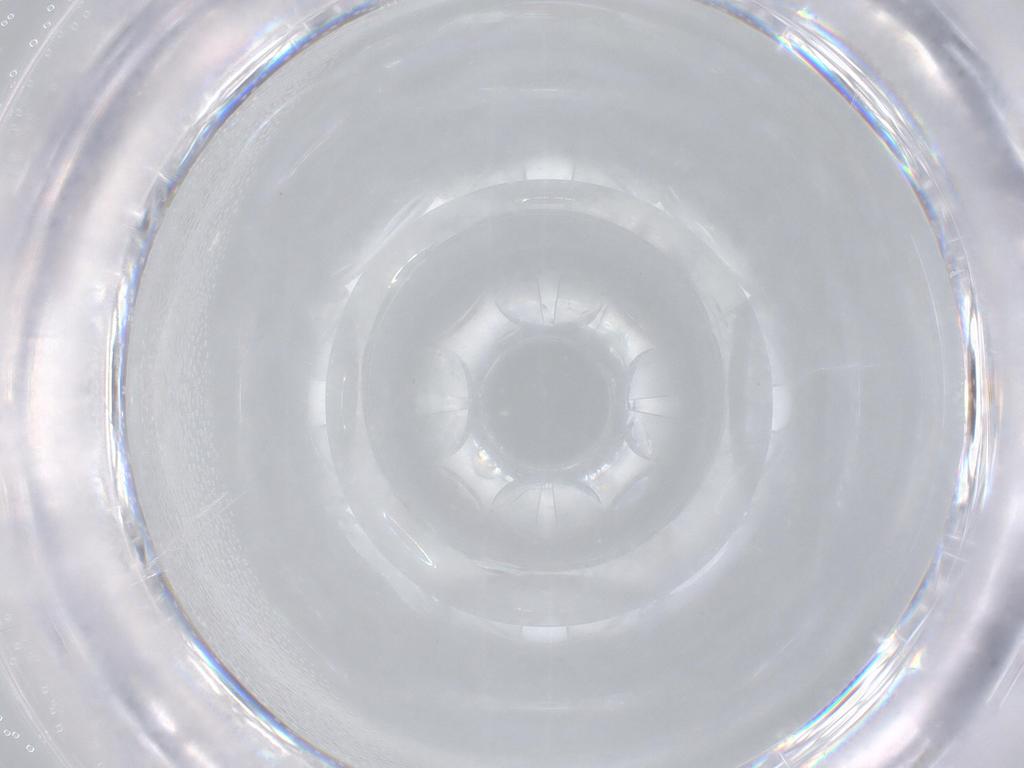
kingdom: Animalia
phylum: Arthropoda
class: Insecta
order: Diptera
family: Chironomidae
